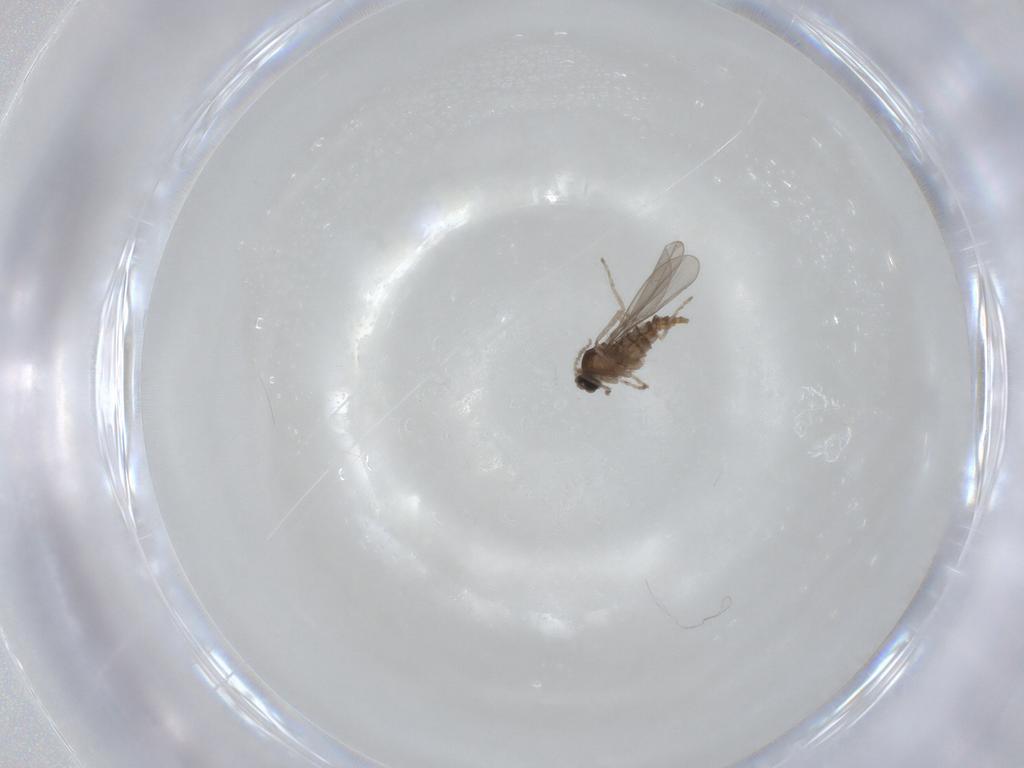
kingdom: Animalia
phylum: Arthropoda
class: Insecta
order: Diptera
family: Cecidomyiidae
